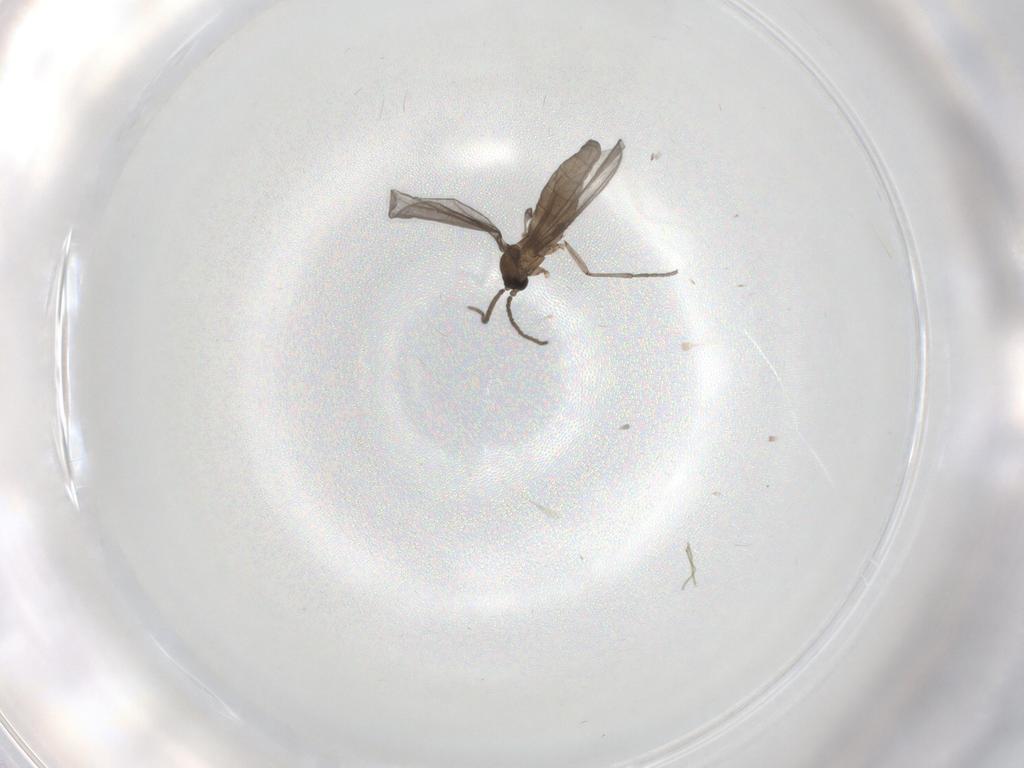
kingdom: Animalia
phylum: Arthropoda
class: Insecta
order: Diptera
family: Sciaridae
